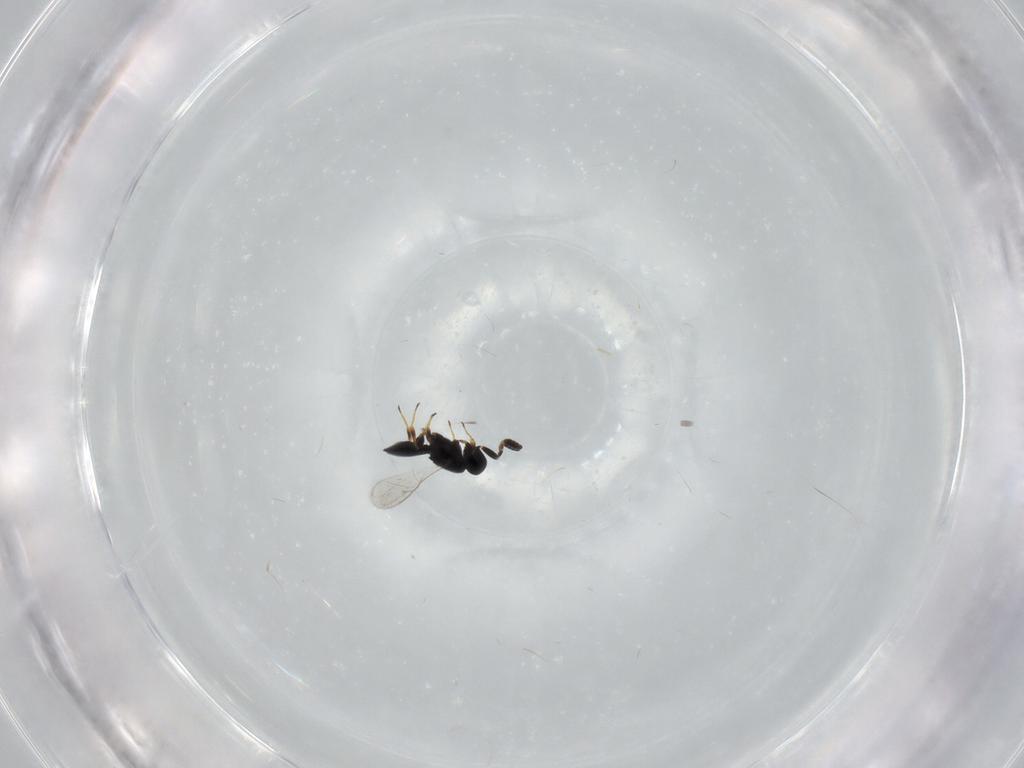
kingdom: Animalia
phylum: Arthropoda
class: Insecta
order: Hymenoptera
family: Scelionidae
